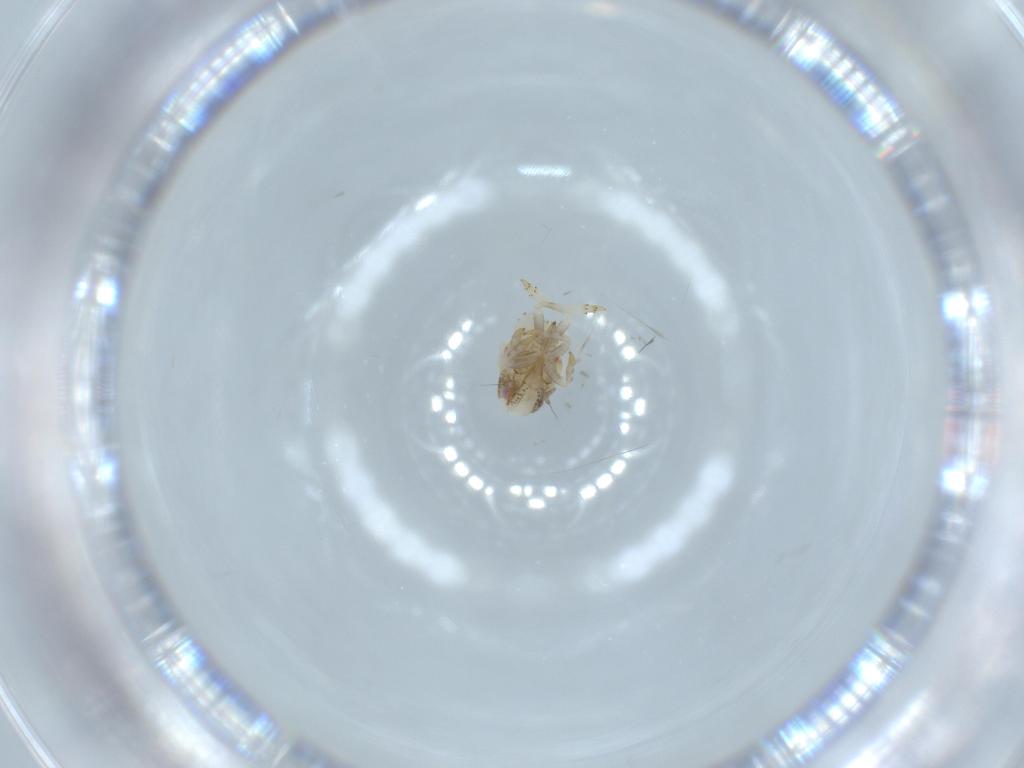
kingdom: Animalia
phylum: Arthropoda
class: Insecta
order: Hemiptera
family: Acanaloniidae
